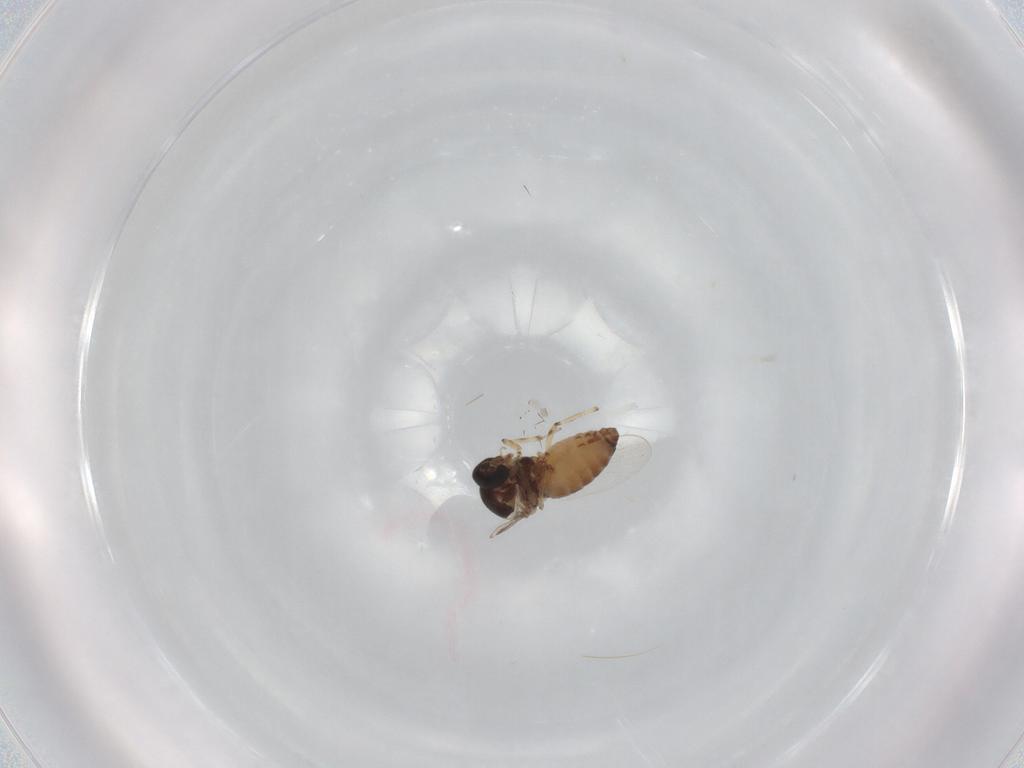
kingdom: Animalia
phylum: Arthropoda
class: Insecta
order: Diptera
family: Ceratopogonidae
